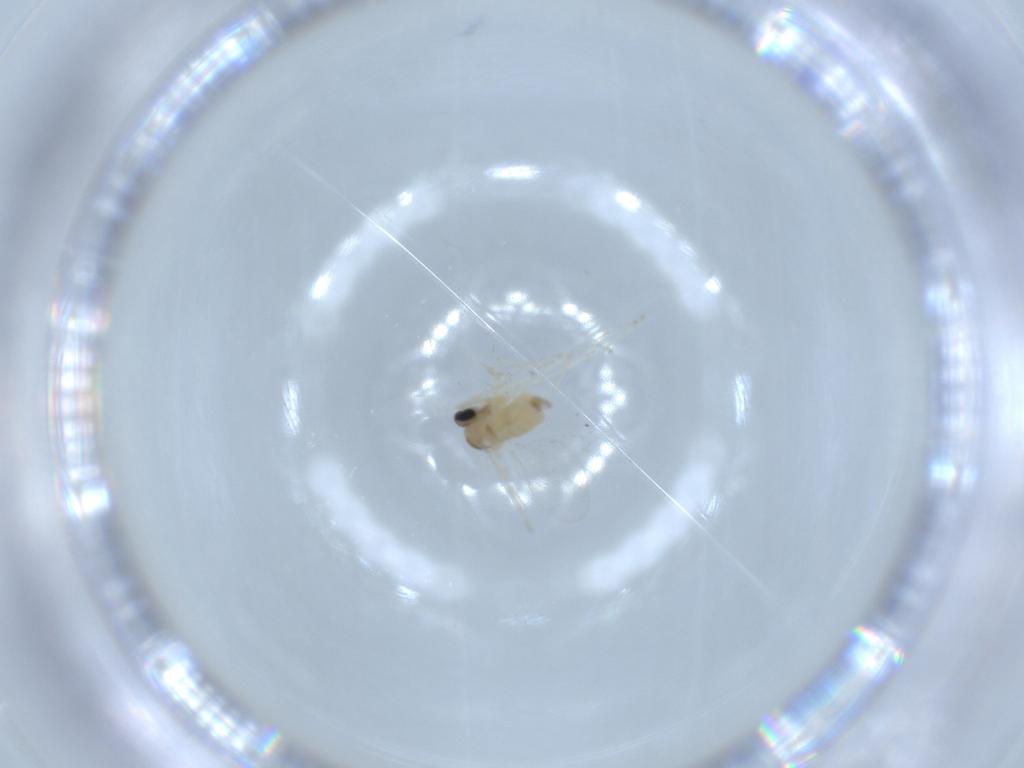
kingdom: Animalia
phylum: Arthropoda
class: Insecta
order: Diptera
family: Cecidomyiidae
